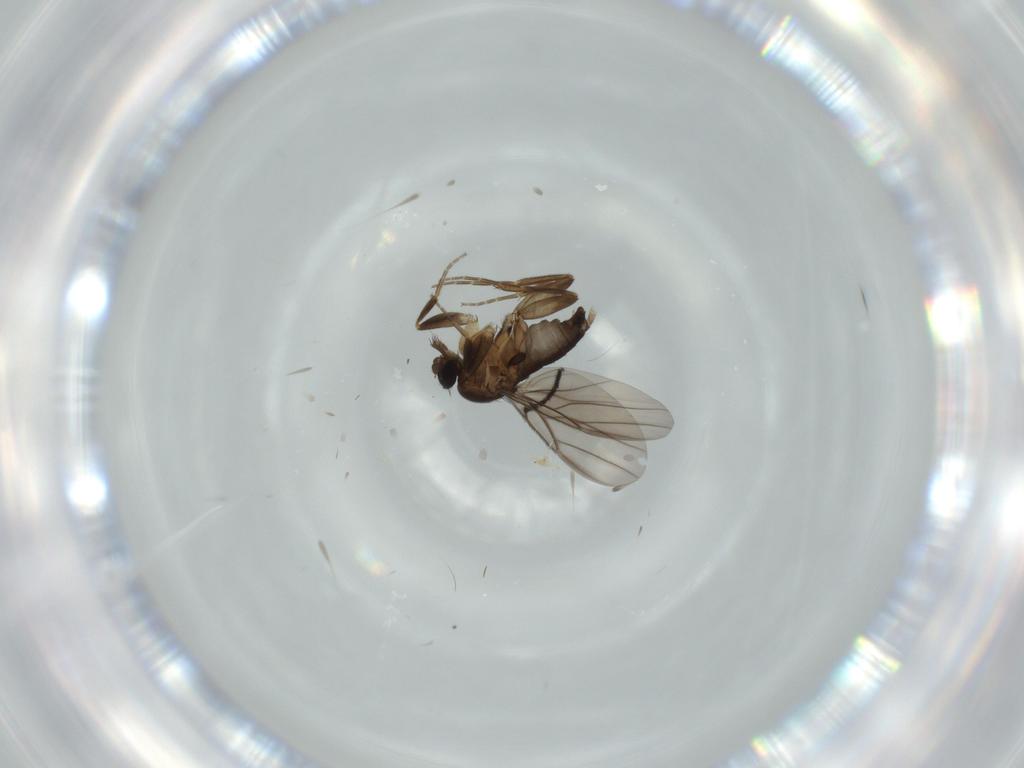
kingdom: Animalia
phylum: Arthropoda
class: Insecta
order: Diptera
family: Milichiidae
